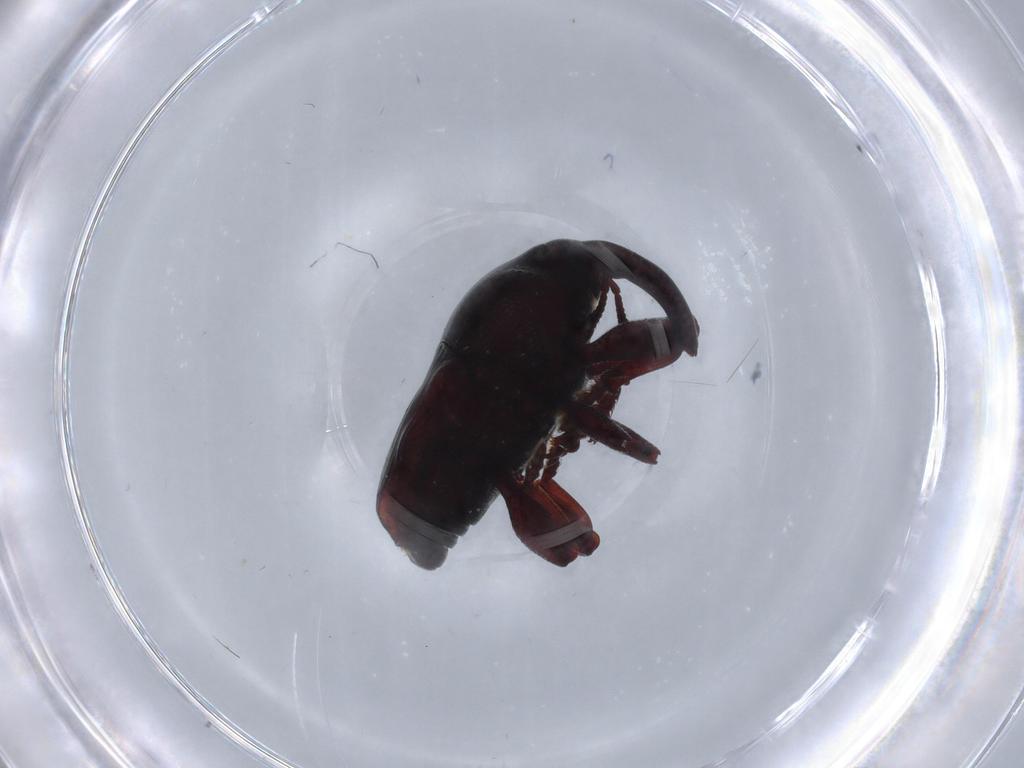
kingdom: Animalia
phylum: Arthropoda
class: Insecta
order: Coleoptera
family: Curculionidae
